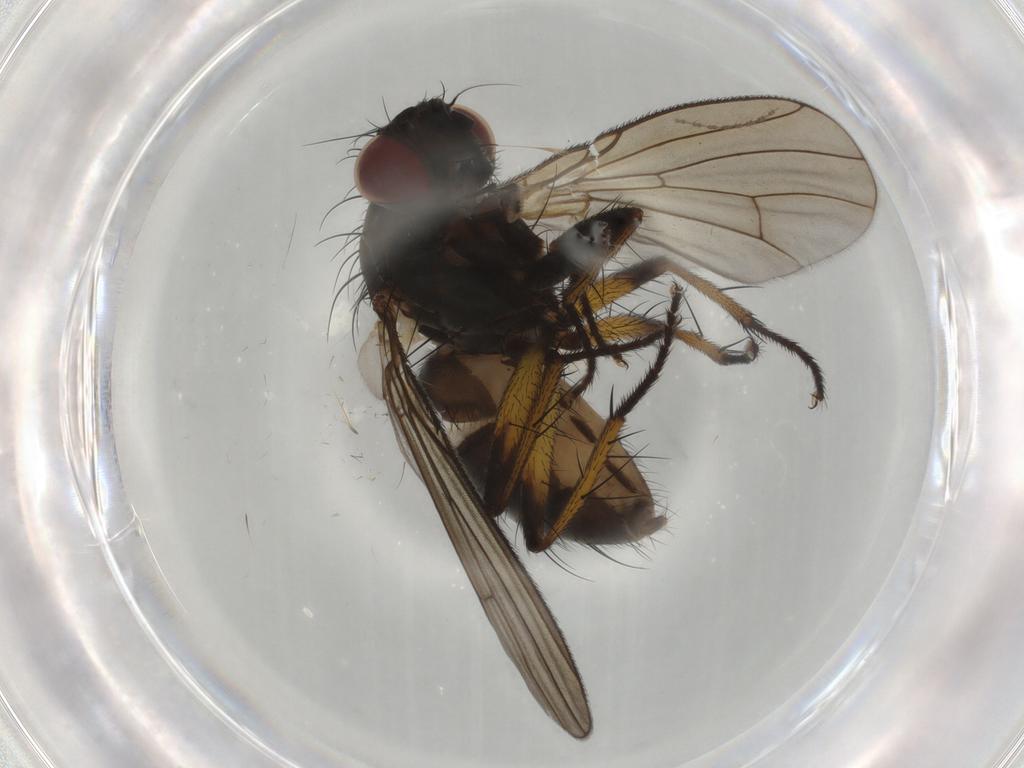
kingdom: Animalia
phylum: Arthropoda
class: Insecta
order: Diptera
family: Muscidae
